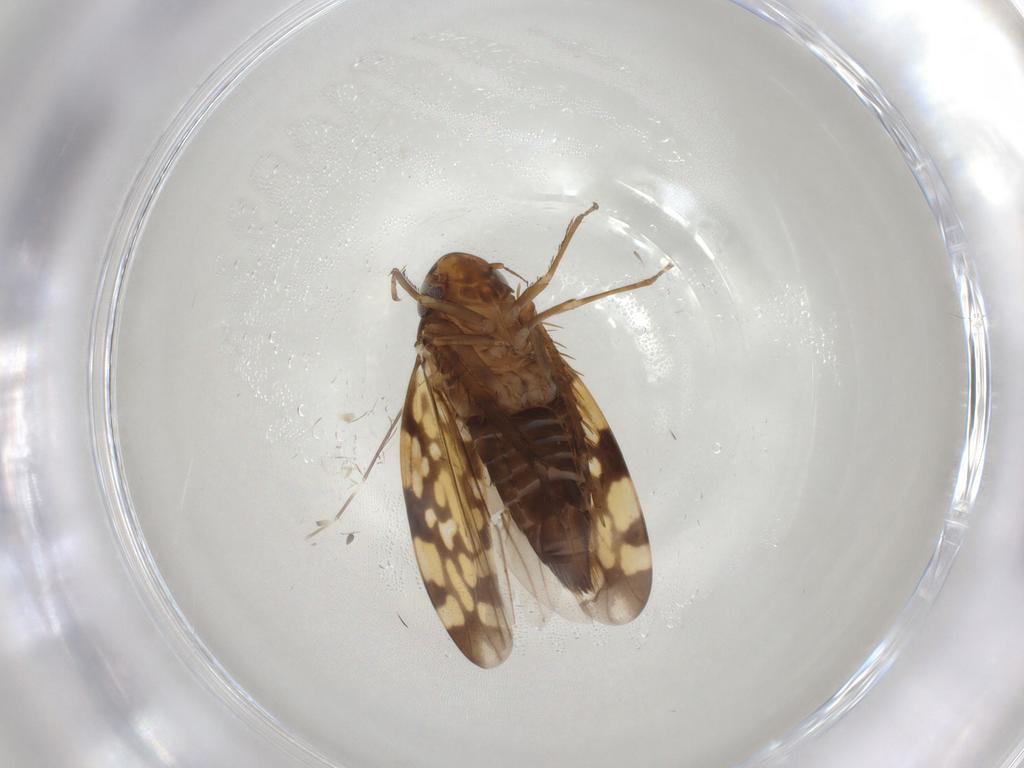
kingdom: Animalia
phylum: Arthropoda
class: Insecta
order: Hemiptera
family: Cicadellidae
